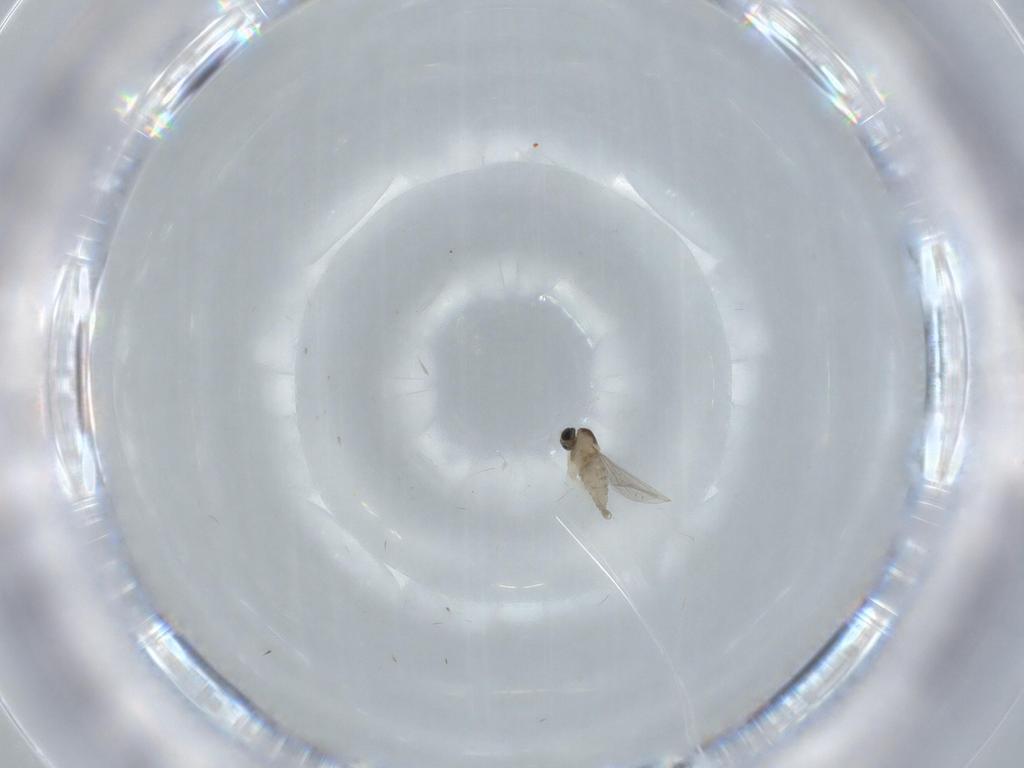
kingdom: Animalia
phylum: Arthropoda
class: Insecta
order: Diptera
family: Cecidomyiidae
